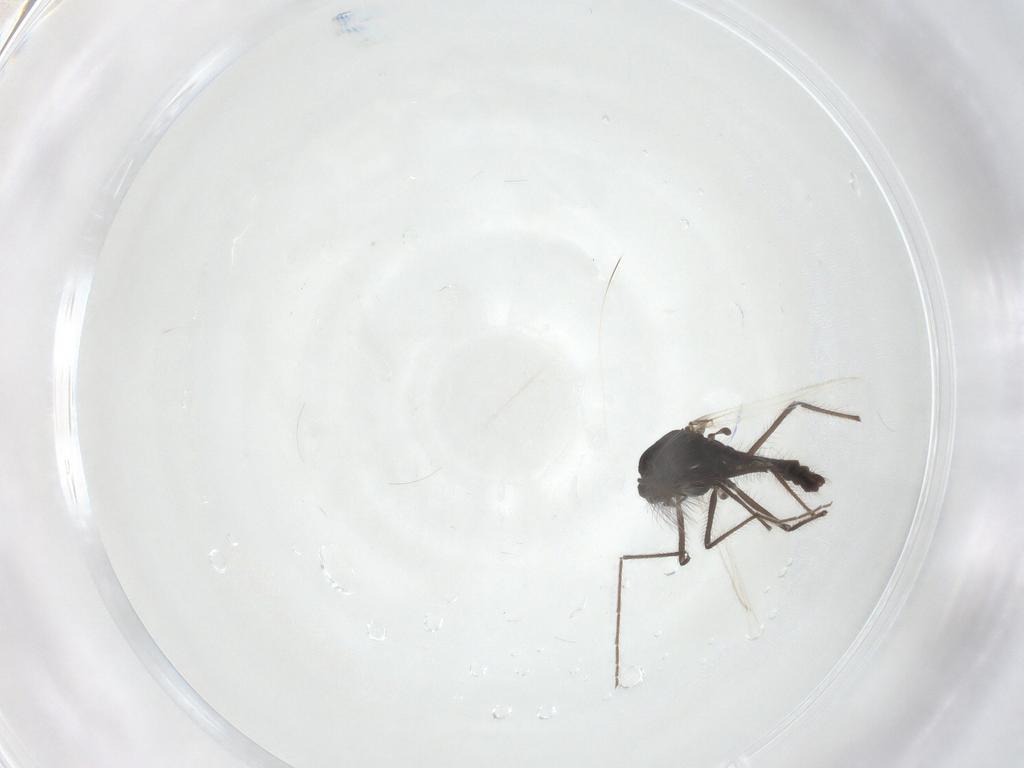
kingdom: Animalia
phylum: Arthropoda
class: Insecta
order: Diptera
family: Chironomidae
